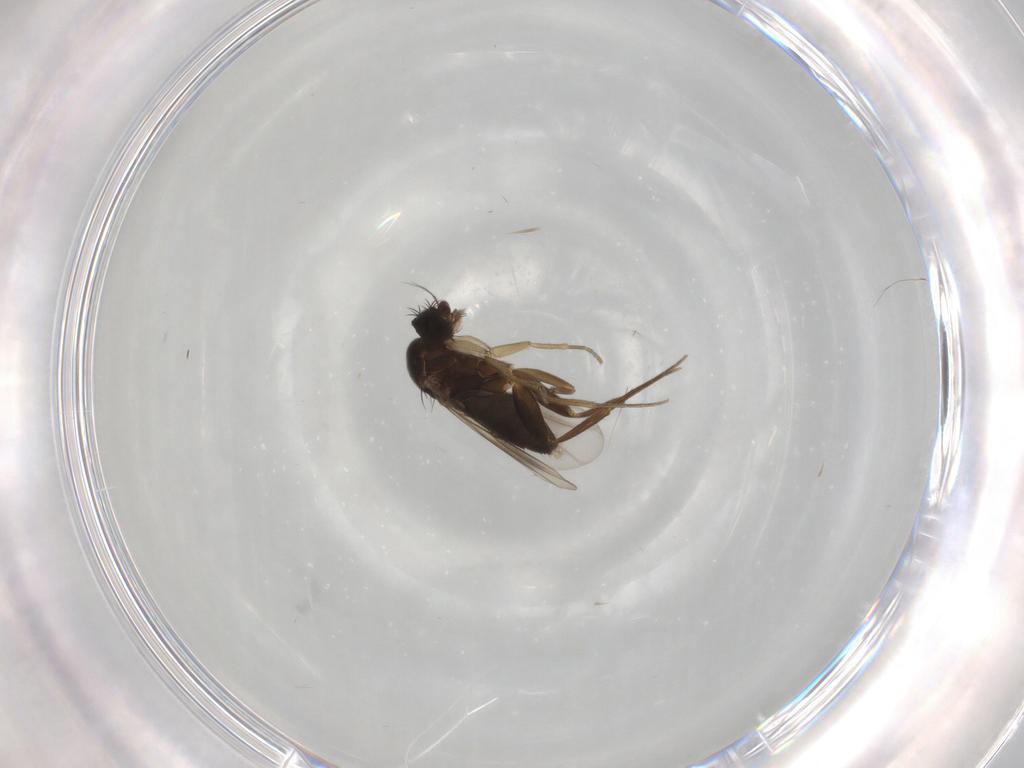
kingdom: Animalia
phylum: Arthropoda
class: Insecta
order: Diptera
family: Phoridae
